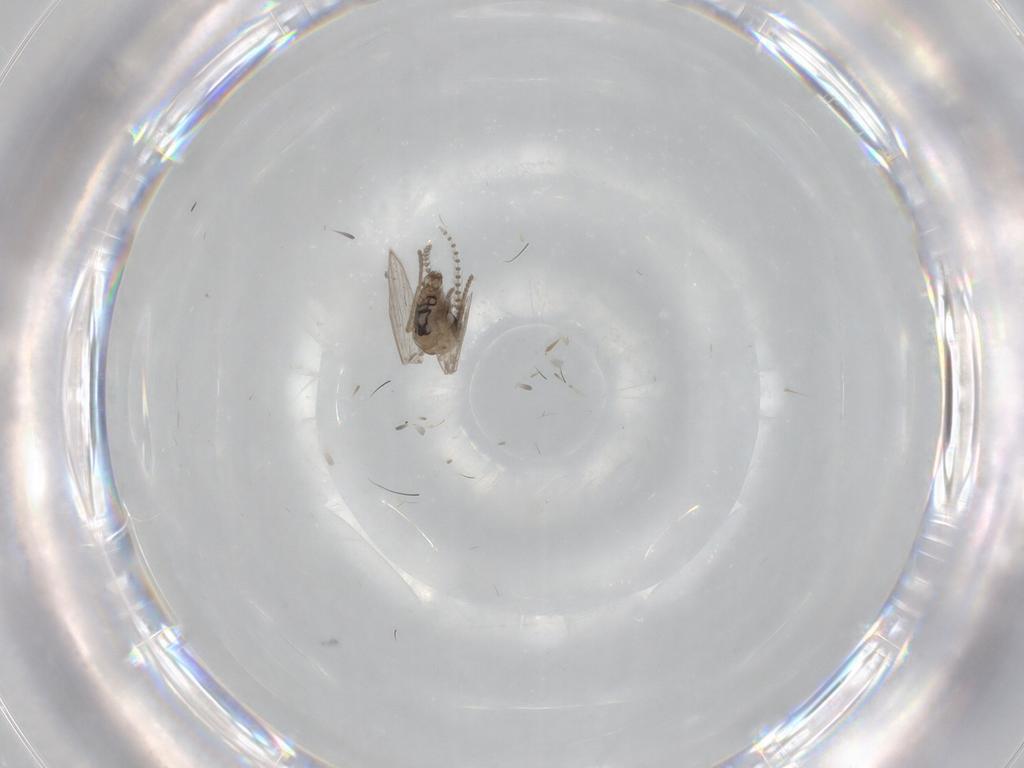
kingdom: Animalia
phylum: Arthropoda
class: Insecta
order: Diptera
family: Psychodidae
